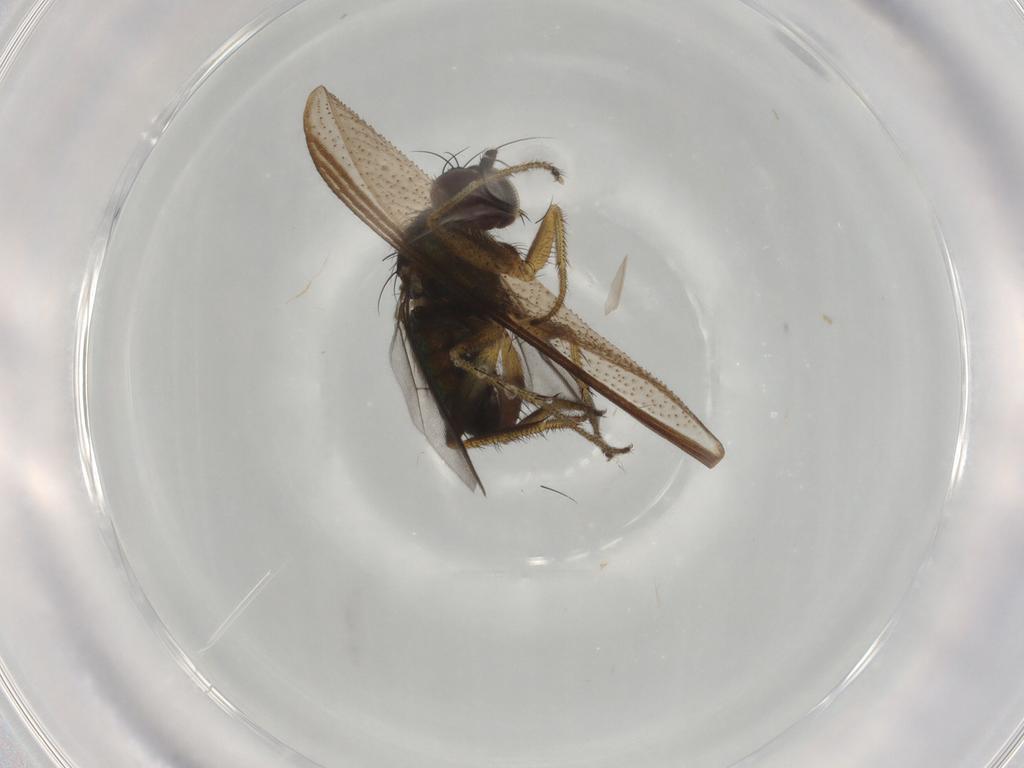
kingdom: Animalia
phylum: Arthropoda
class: Insecta
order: Diptera
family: Dolichopodidae
